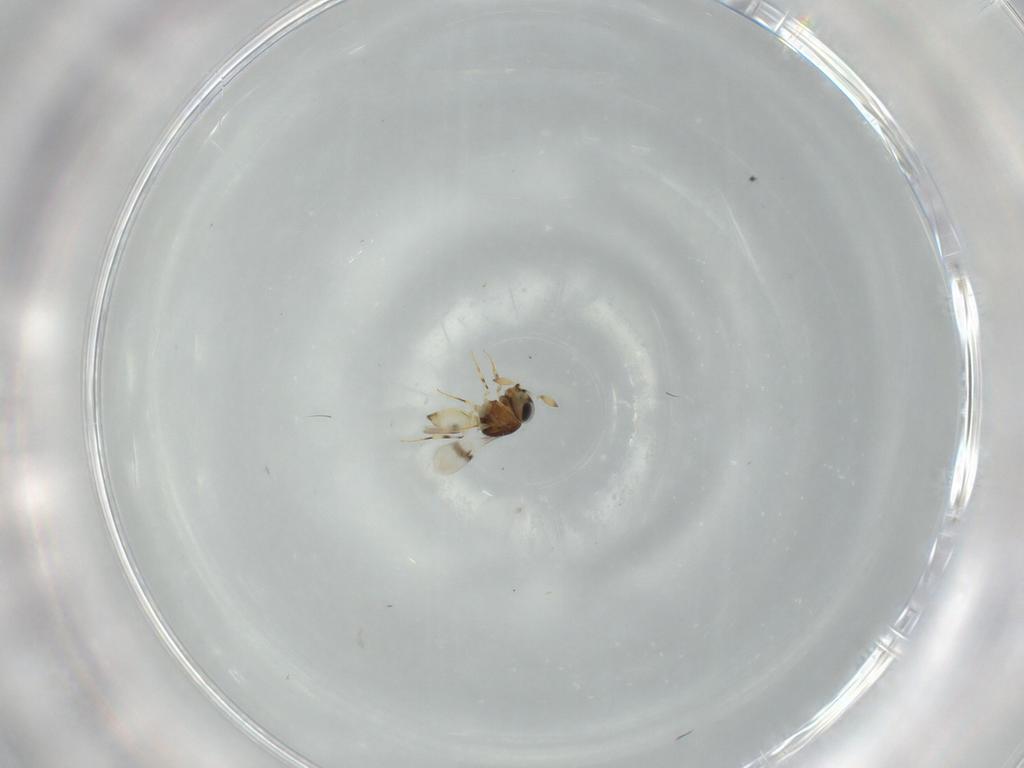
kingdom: Animalia
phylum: Arthropoda
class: Insecta
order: Hymenoptera
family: Scelionidae
